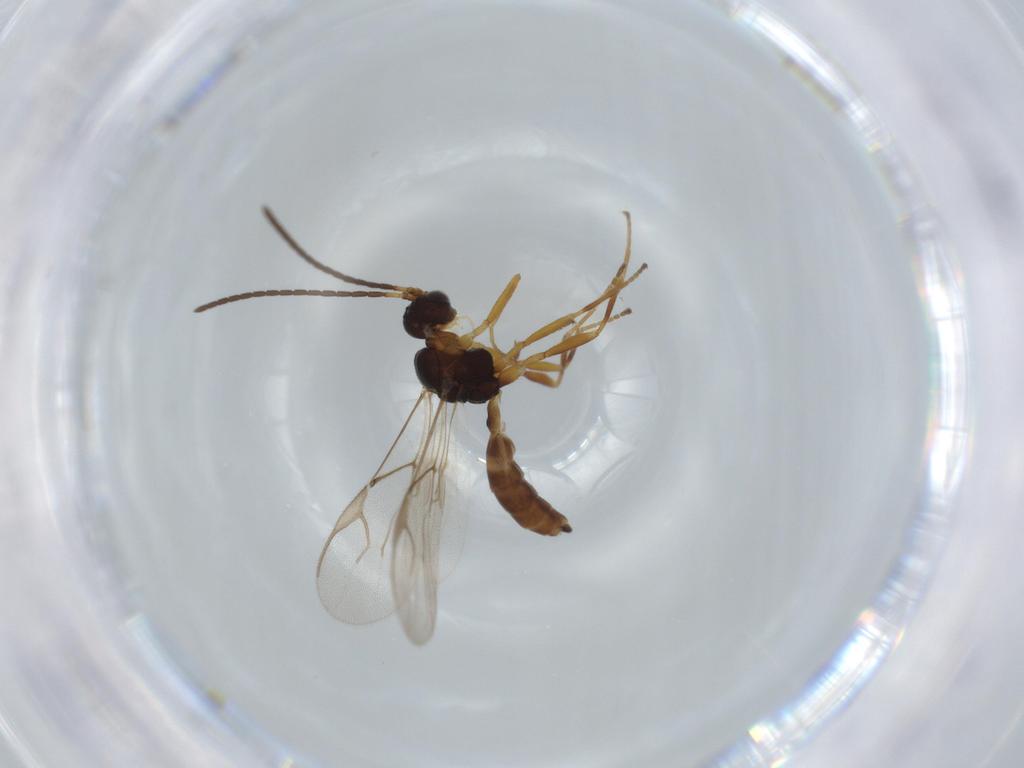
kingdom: Animalia
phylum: Arthropoda
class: Insecta
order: Hymenoptera
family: Braconidae
